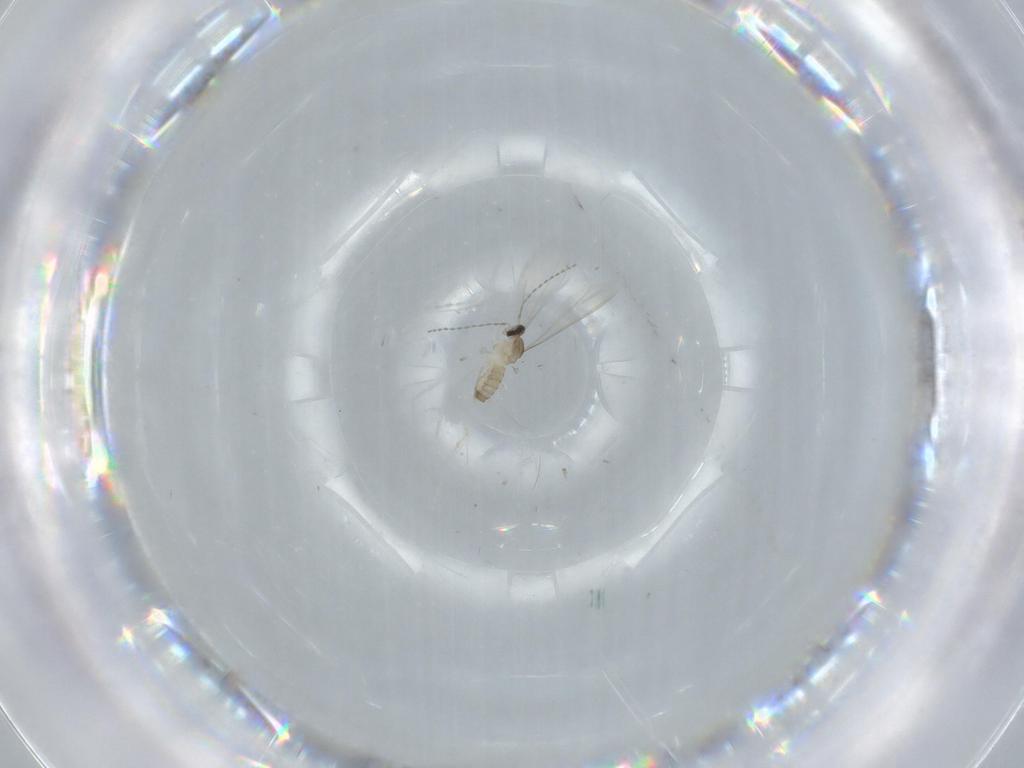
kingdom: Animalia
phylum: Arthropoda
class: Insecta
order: Diptera
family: Cecidomyiidae
